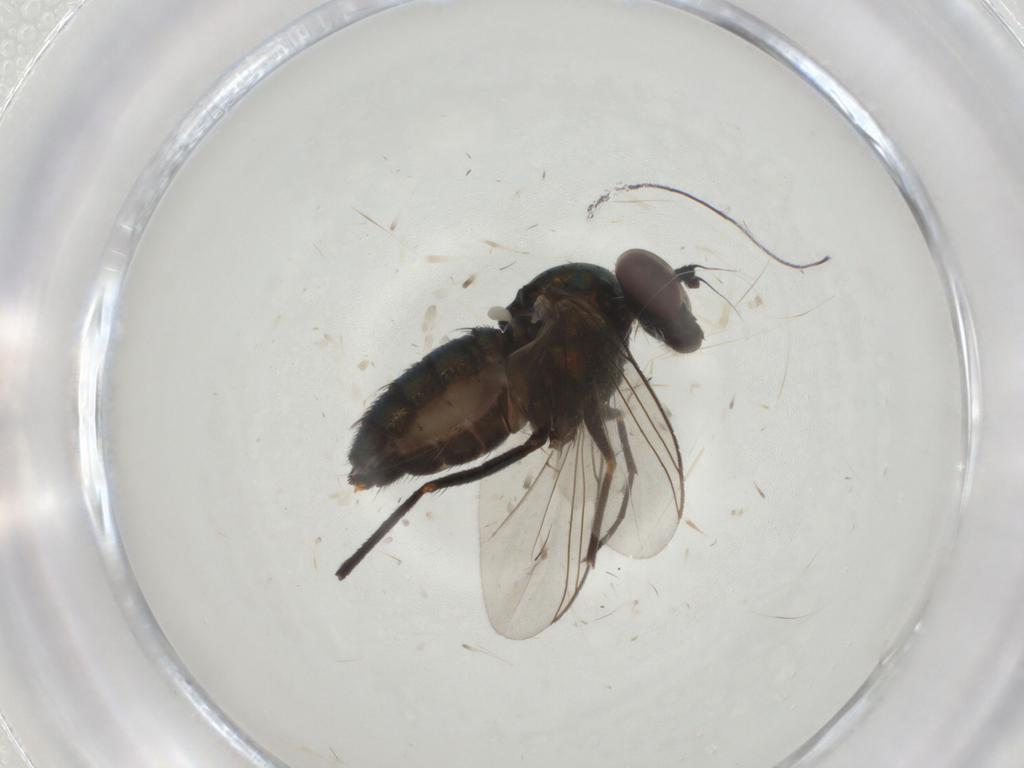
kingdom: Animalia
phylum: Arthropoda
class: Insecta
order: Diptera
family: Dolichopodidae
